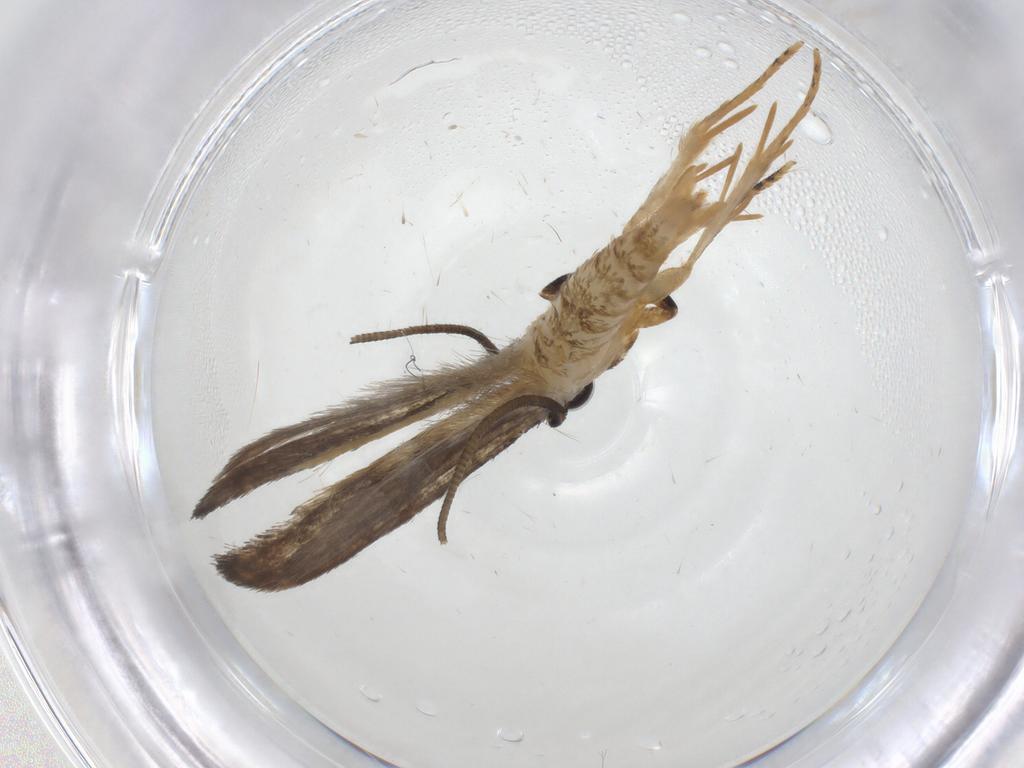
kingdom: Animalia
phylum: Arthropoda
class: Insecta
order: Lepidoptera
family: Tineidae
